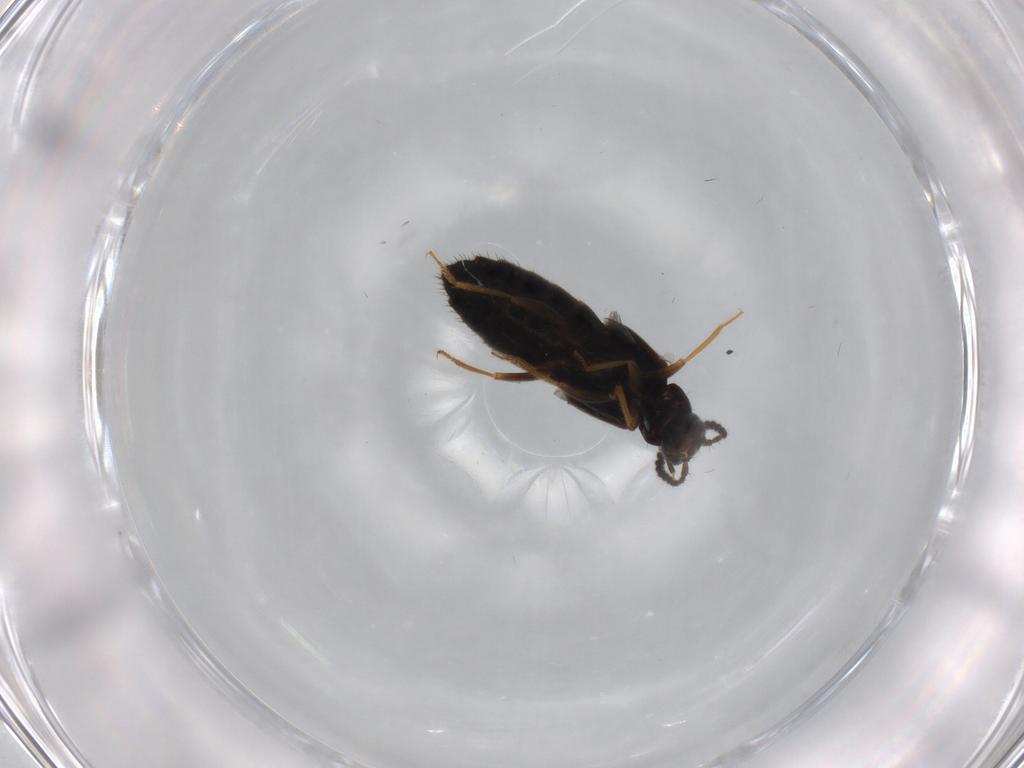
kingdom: Animalia
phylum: Arthropoda
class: Insecta
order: Coleoptera
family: Staphylinidae
